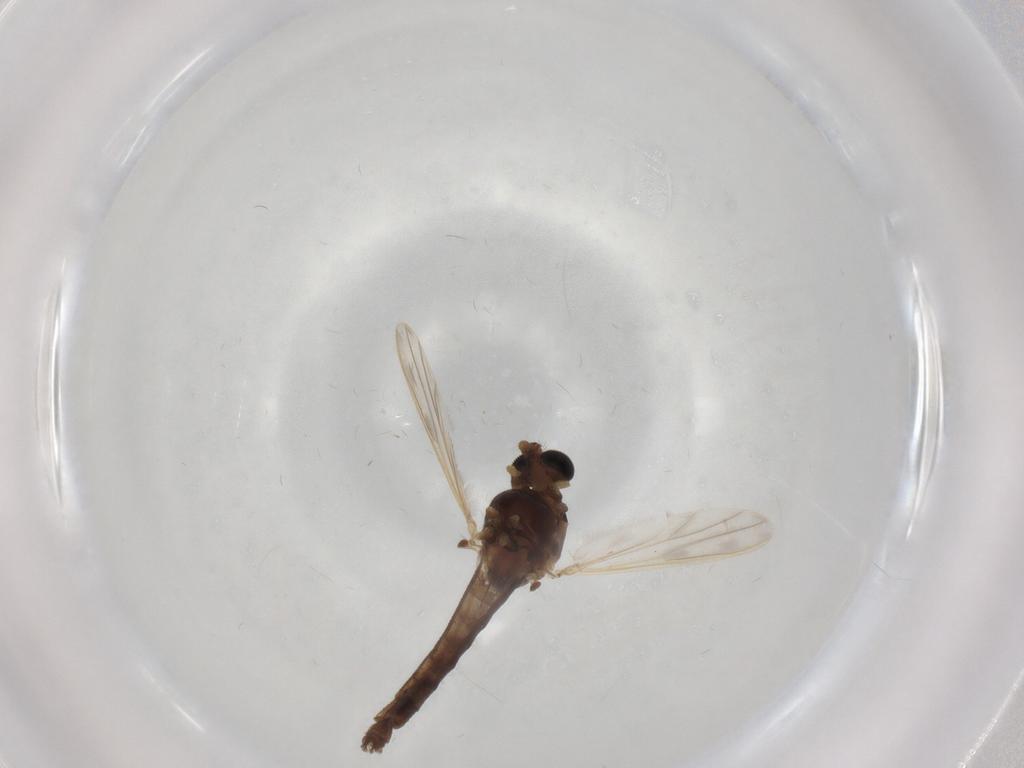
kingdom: Animalia
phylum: Arthropoda
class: Insecta
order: Diptera
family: Chironomidae
